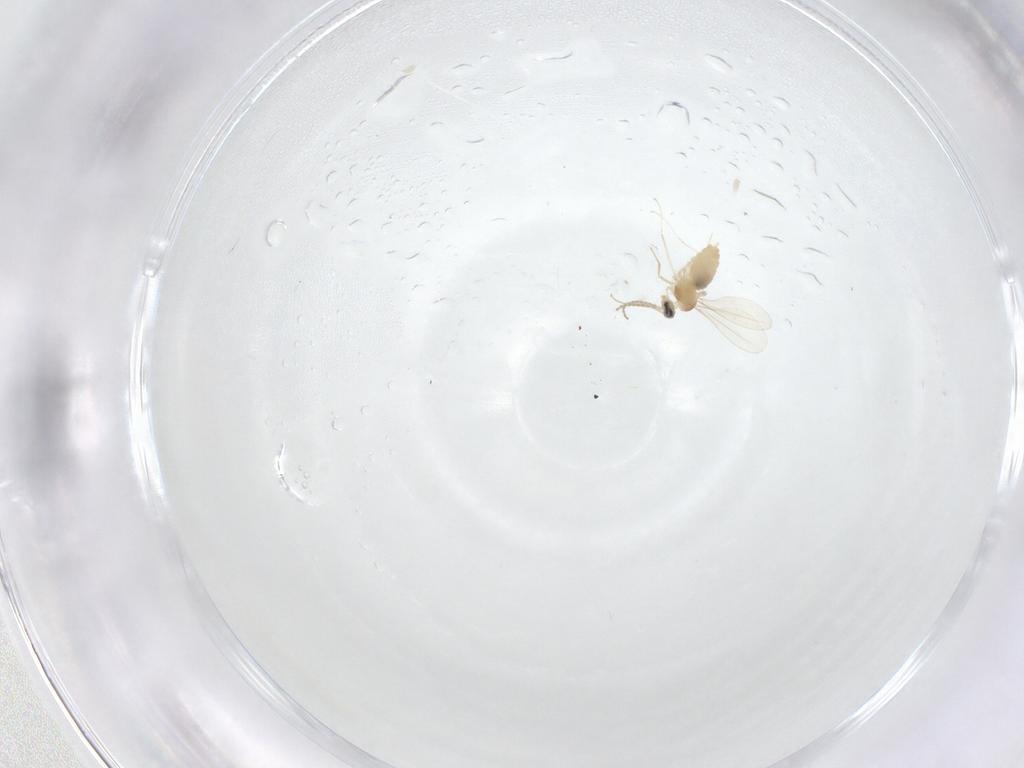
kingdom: Animalia
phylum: Arthropoda
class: Insecta
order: Diptera
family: Cecidomyiidae
